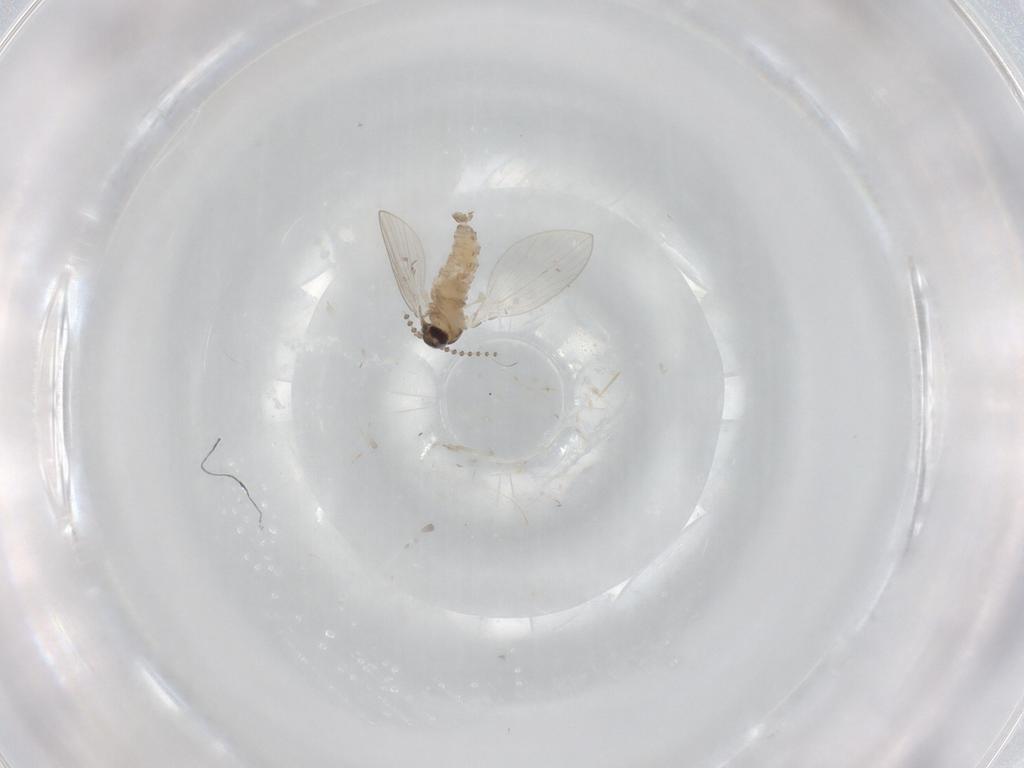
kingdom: Animalia
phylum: Arthropoda
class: Insecta
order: Diptera
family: Psychodidae
